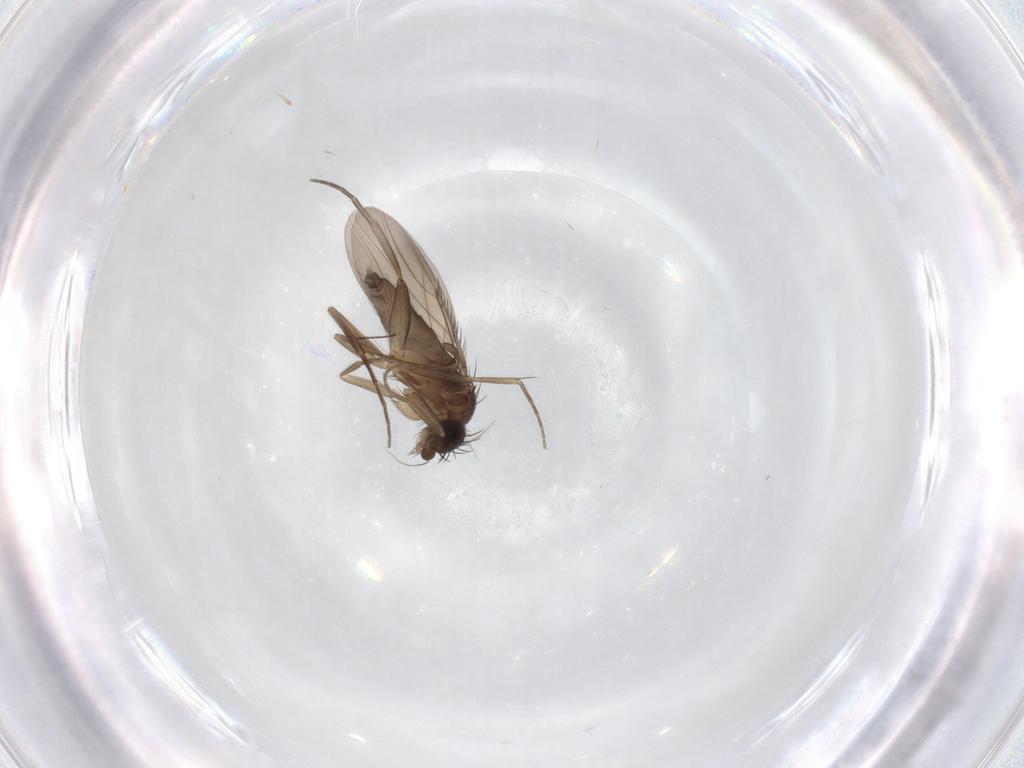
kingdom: Animalia
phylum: Arthropoda
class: Insecta
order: Diptera
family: Phoridae
